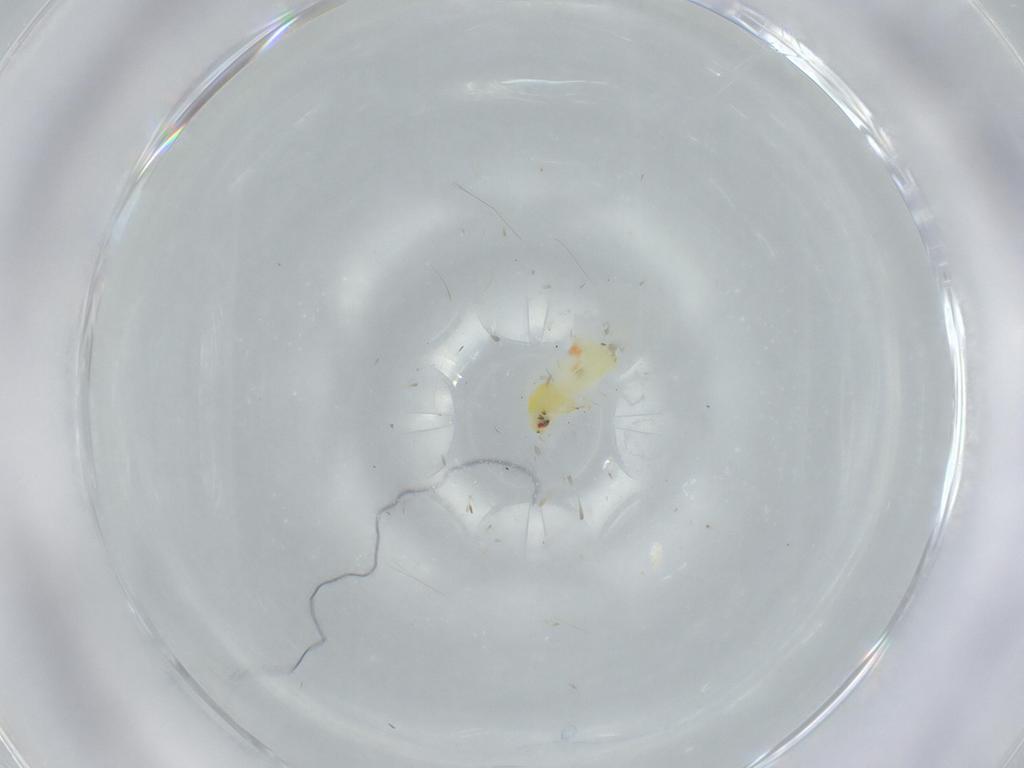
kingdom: Animalia
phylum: Arthropoda
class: Insecta
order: Hemiptera
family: Aleyrodidae
